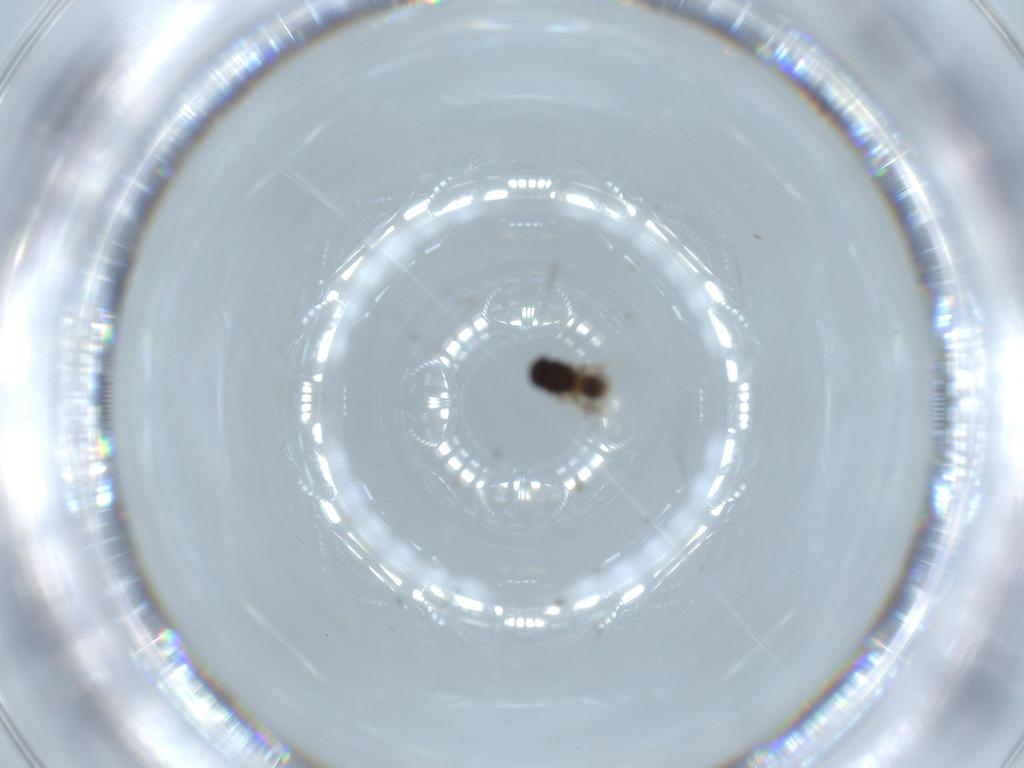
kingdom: Animalia
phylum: Arthropoda
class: Insecta
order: Hymenoptera
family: Platygastridae
